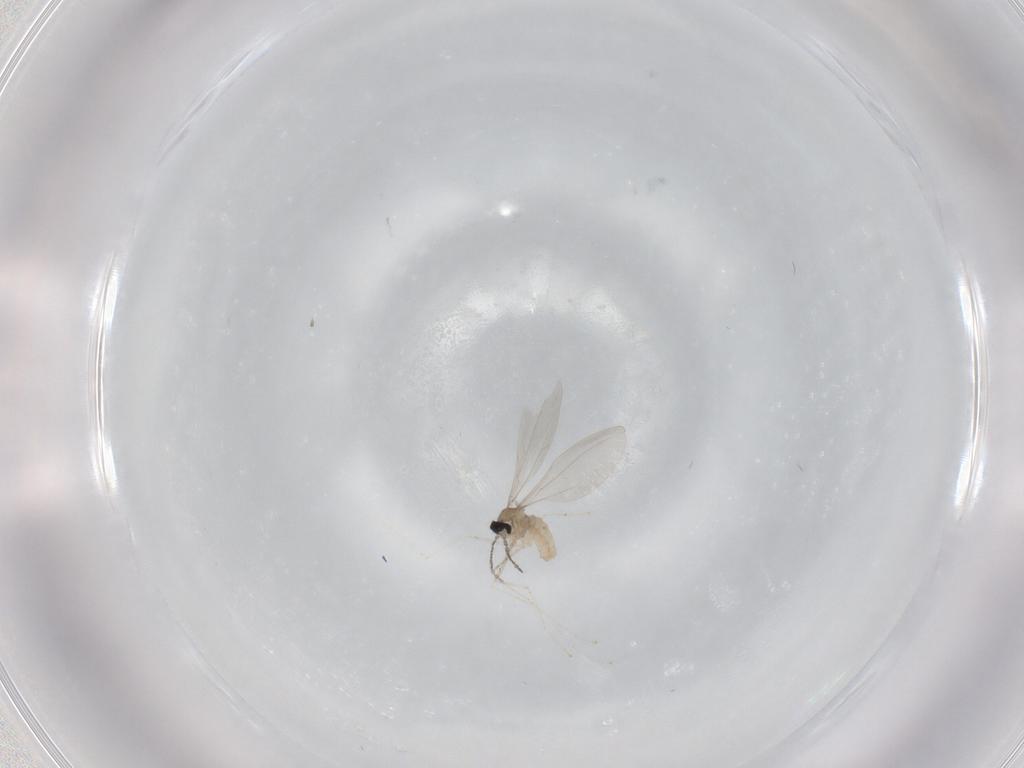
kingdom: Animalia
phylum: Arthropoda
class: Insecta
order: Diptera
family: Cecidomyiidae
